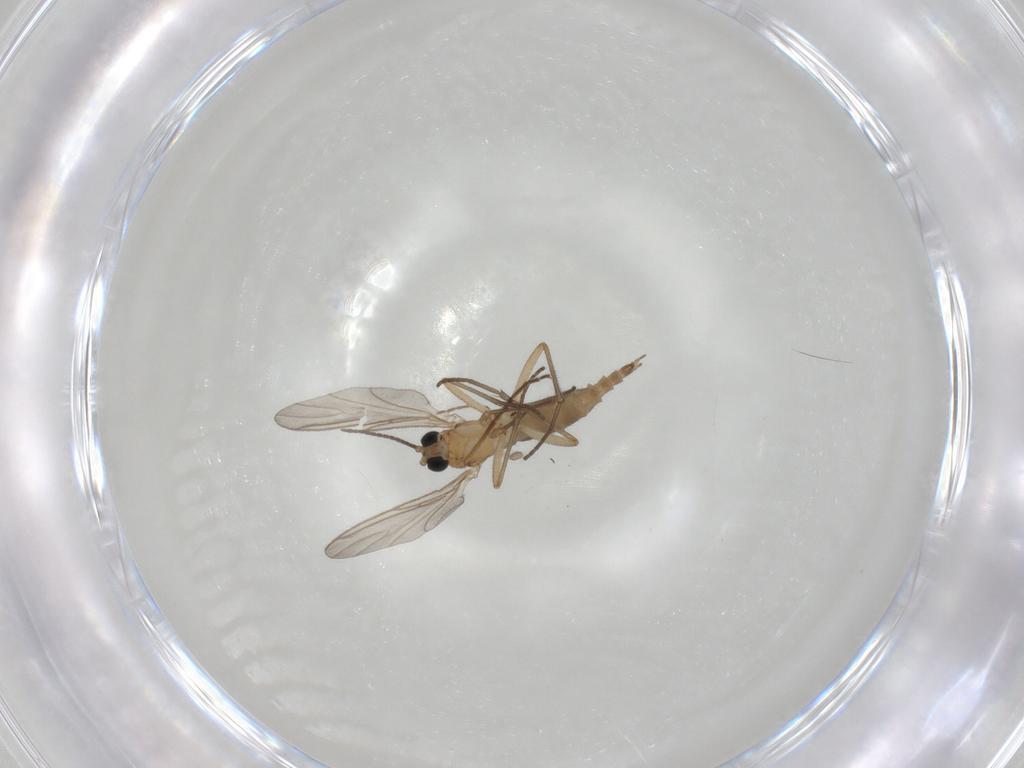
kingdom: Animalia
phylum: Arthropoda
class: Insecta
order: Diptera
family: Sciaridae
